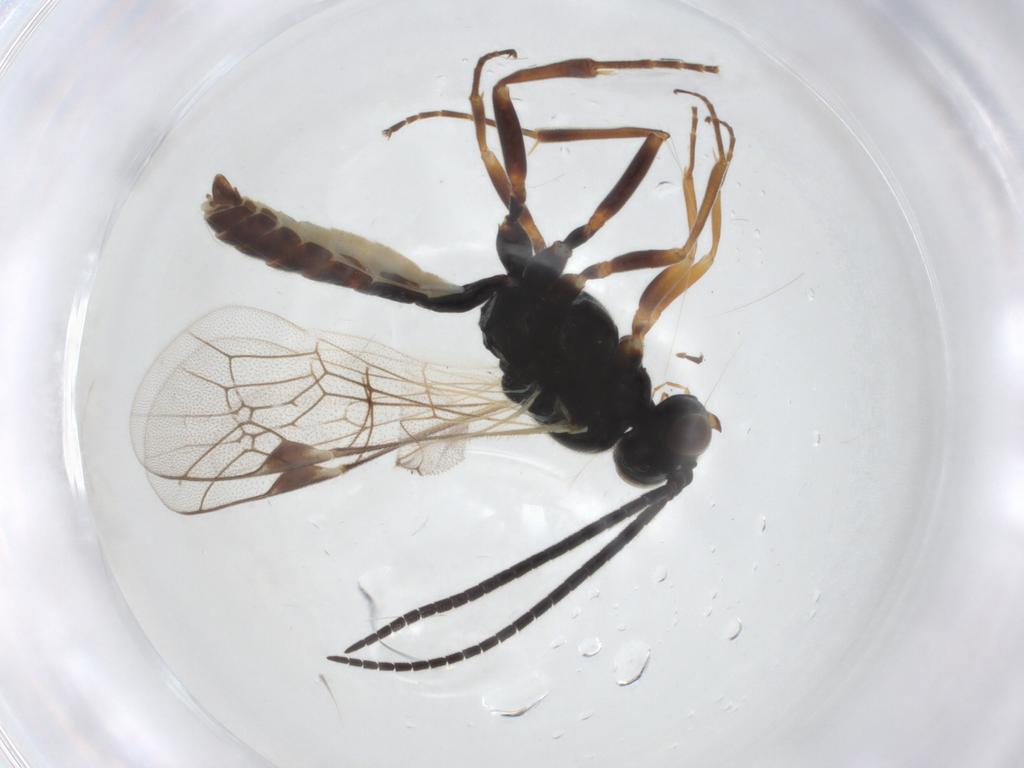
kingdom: Animalia
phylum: Arthropoda
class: Insecta
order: Hymenoptera
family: Ichneumonidae
